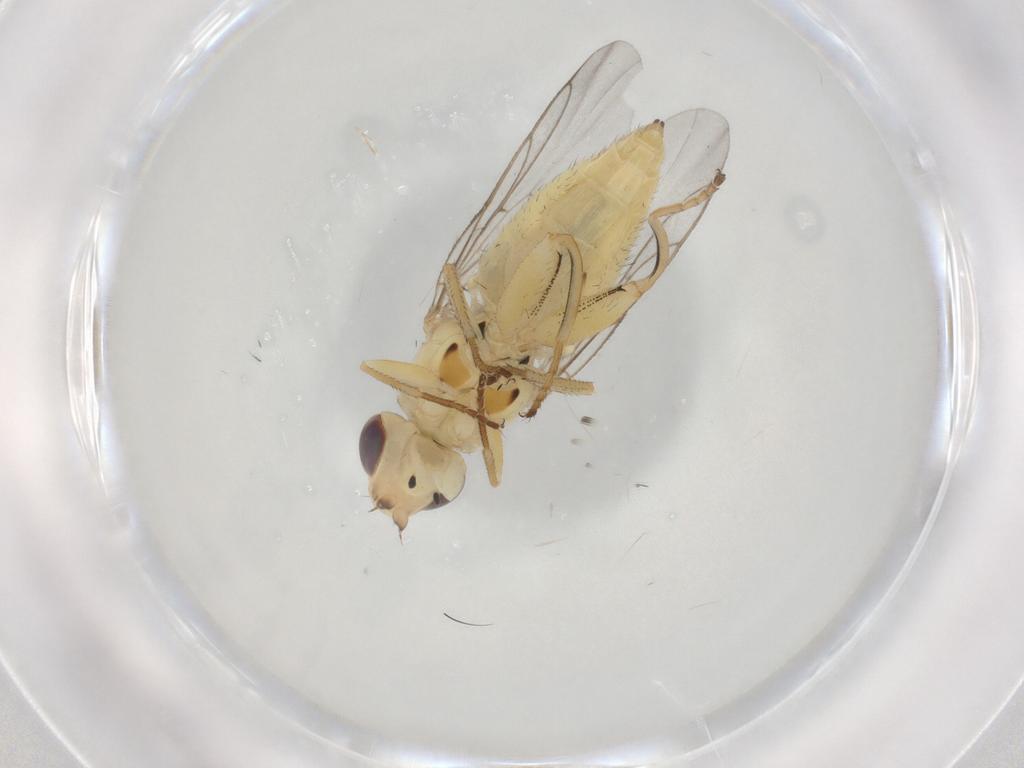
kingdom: Animalia
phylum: Arthropoda
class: Insecta
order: Diptera
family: Chloropidae
